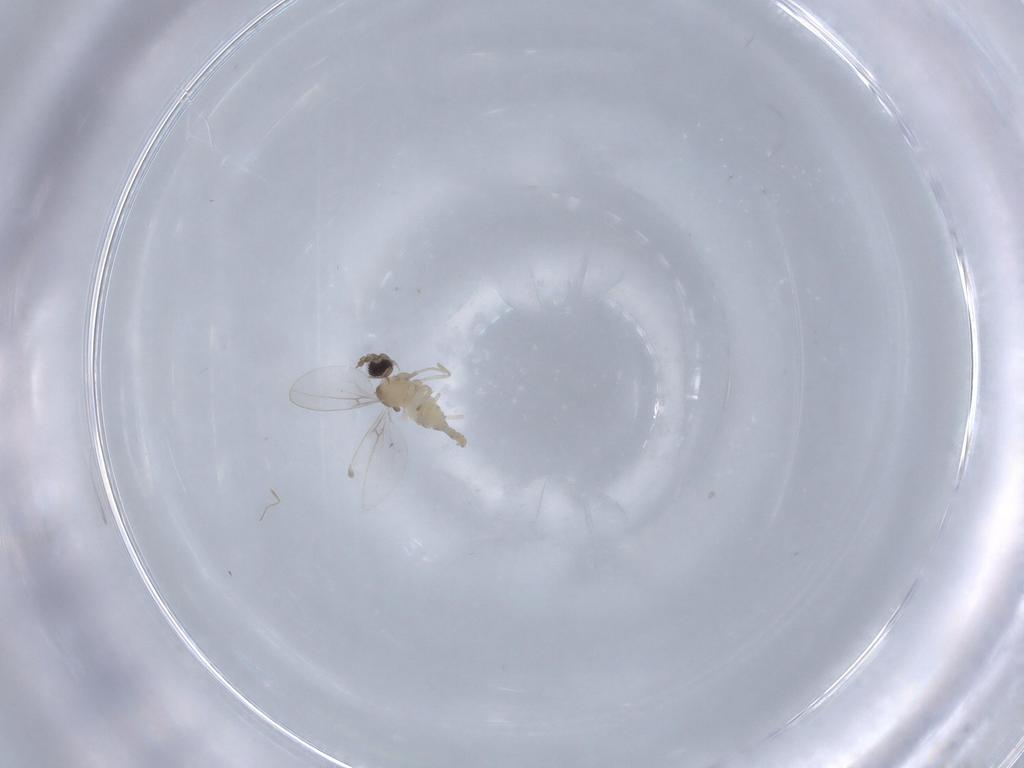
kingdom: Animalia
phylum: Arthropoda
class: Insecta
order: Diptera
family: Cecidomyiidae
